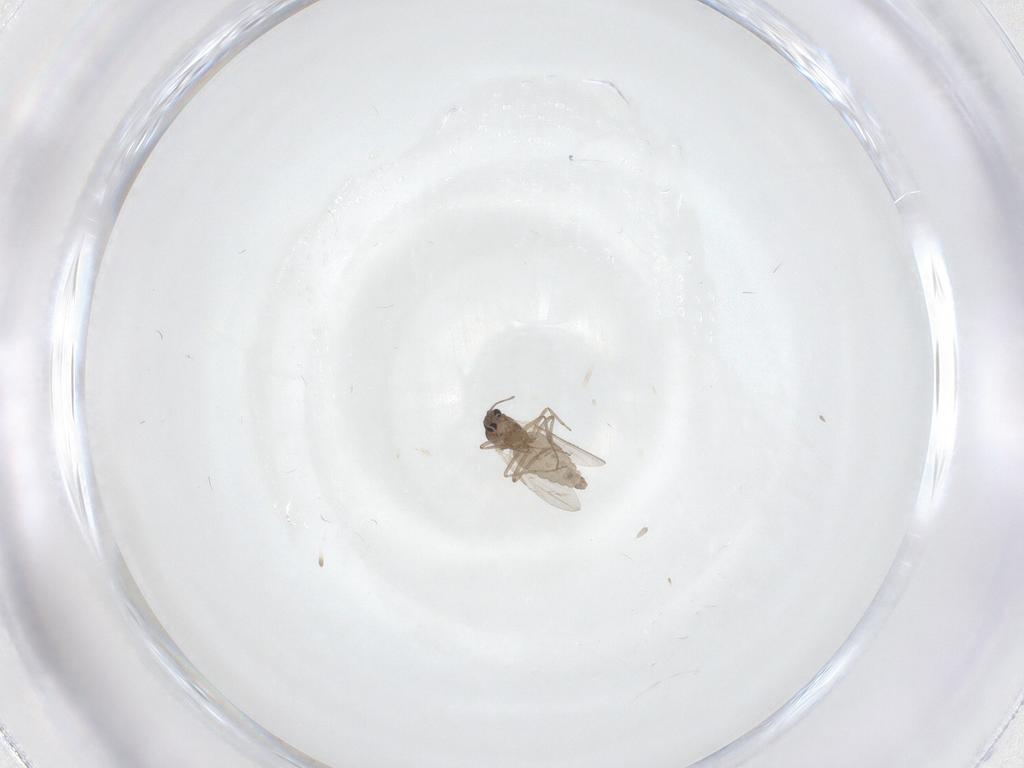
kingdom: Animalia
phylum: Arthropoda
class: Insecta
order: Diptera
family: Ceratopogonidae
